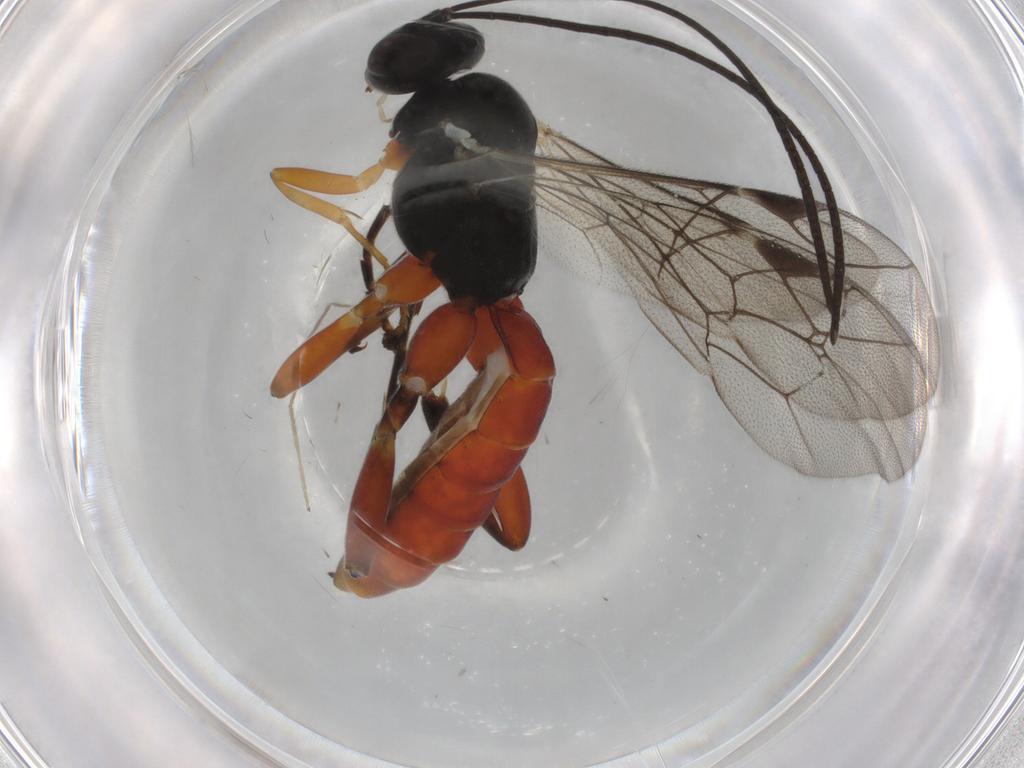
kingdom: Animalia
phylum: Arthropoda
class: Insecta
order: Hymenoptera
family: Ichneumonidae
